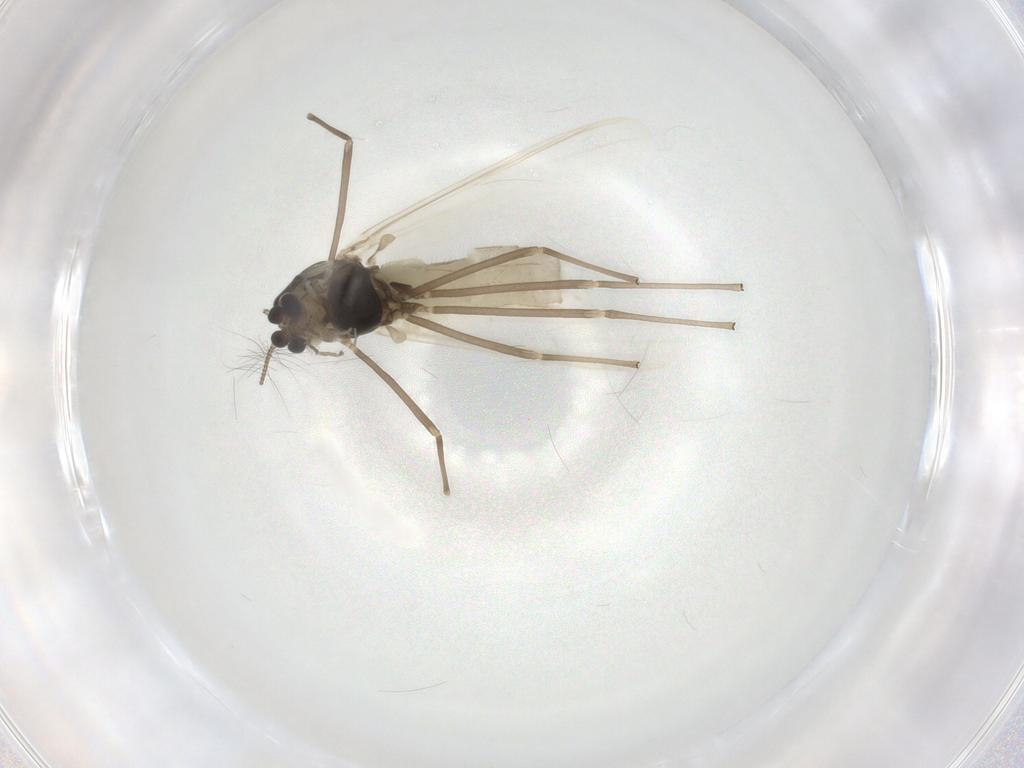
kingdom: Animalia
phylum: Arthropoda
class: Insecta
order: Diptera
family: Chironomidae
